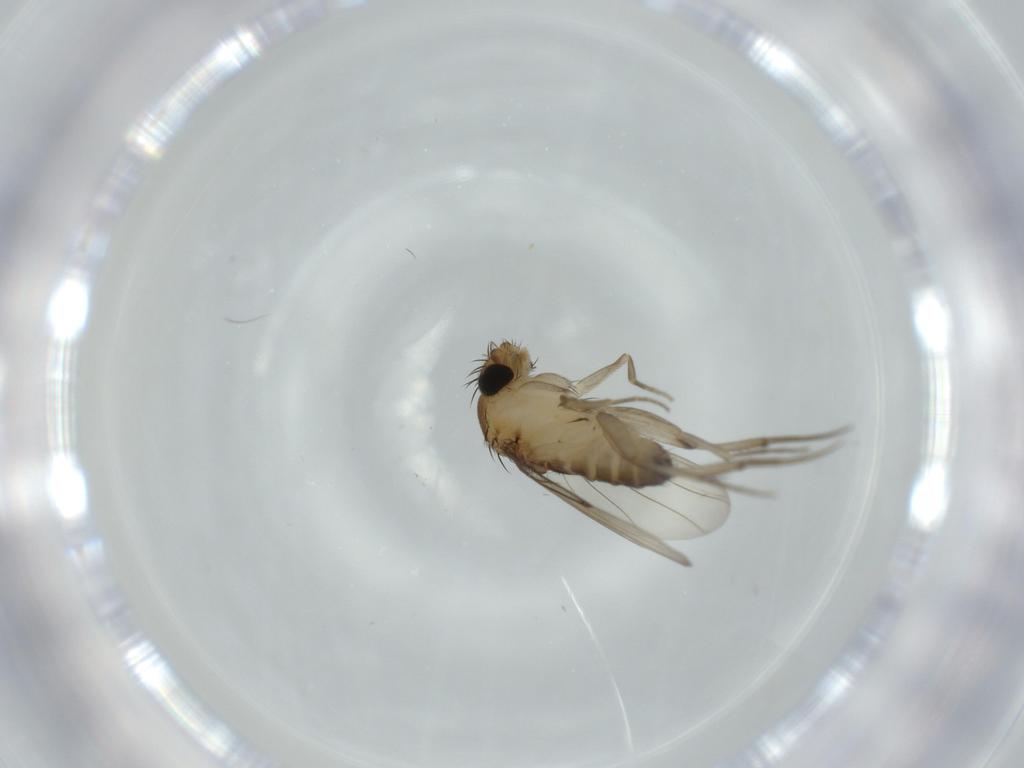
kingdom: Animalia
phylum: Arthropoda
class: Insecta
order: Diptera
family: Phoridae
